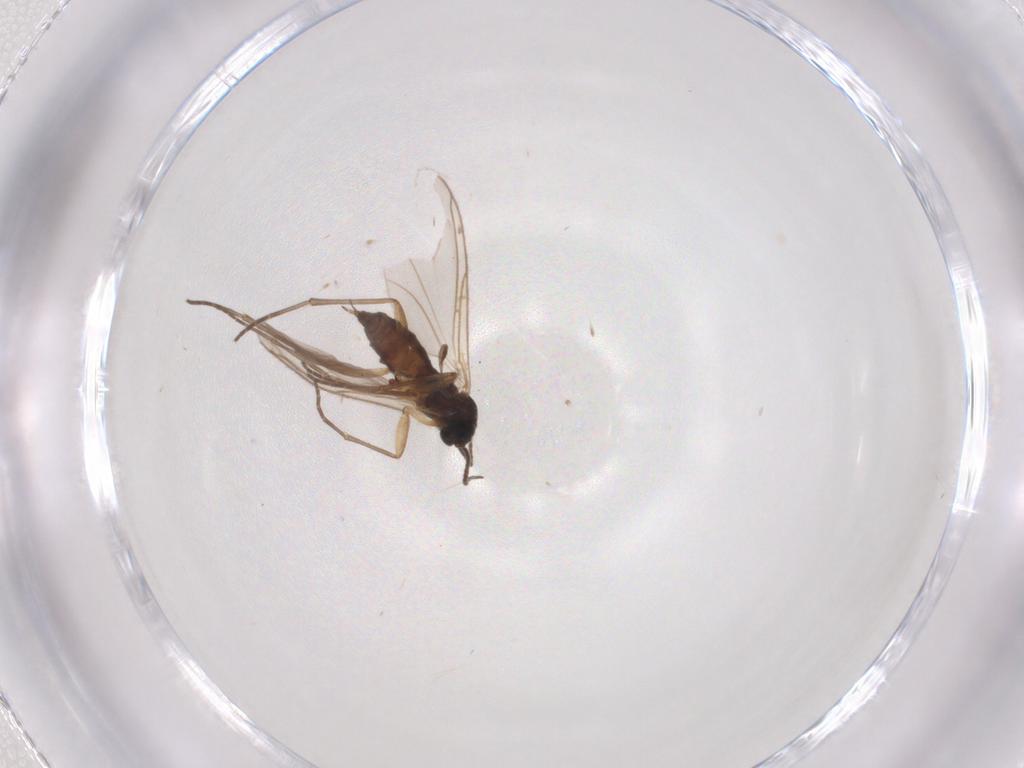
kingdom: Animalia
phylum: Arthropoda
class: Insecta
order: Diptera
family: Sciaridae
